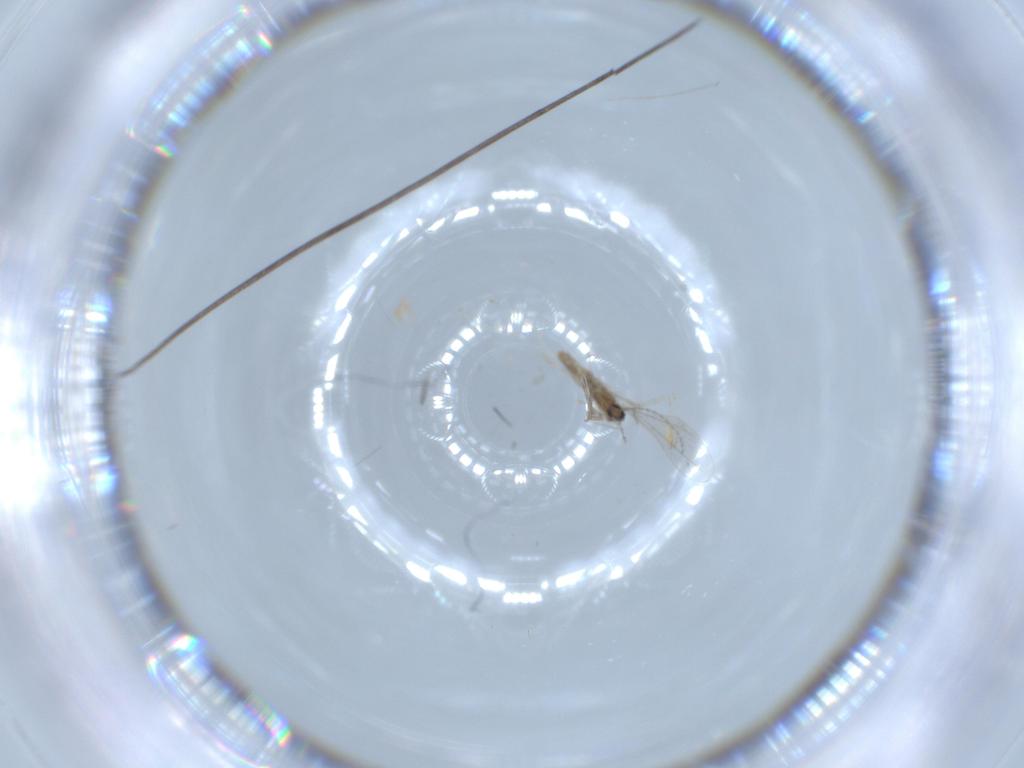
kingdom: Animalia
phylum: Arthropoda
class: Insecta
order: Diptera
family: Cecidomyiidae
